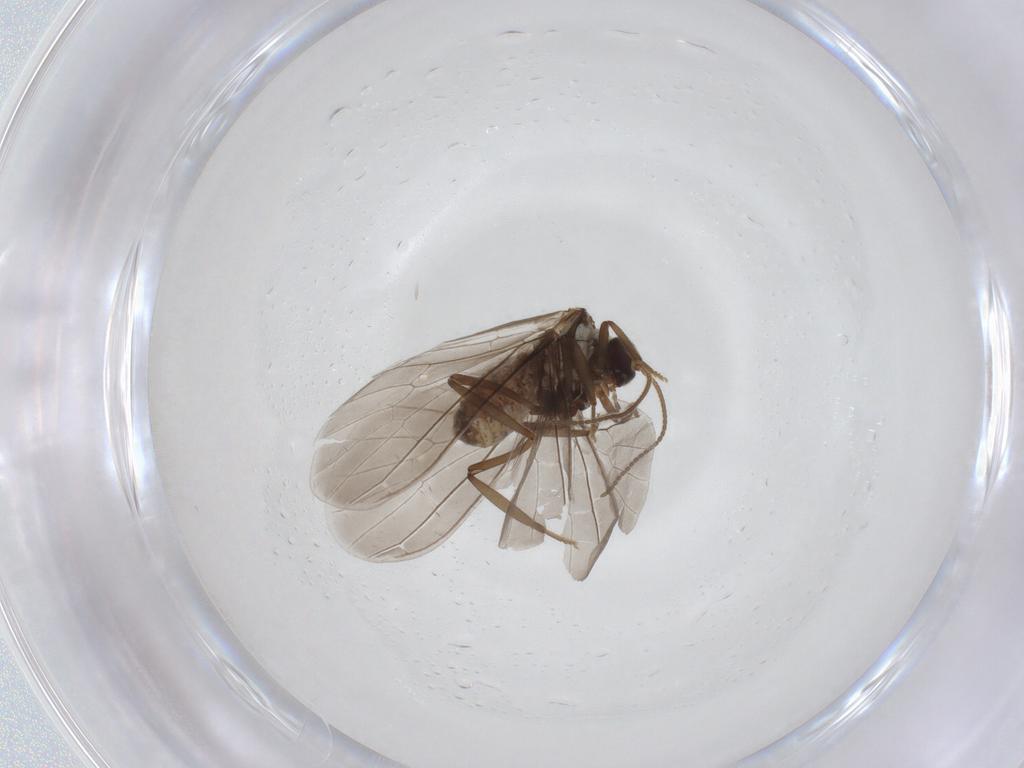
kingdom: Animalia
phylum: Arthropoda
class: Insecta
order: Neuroptera
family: Coniopterygidae
